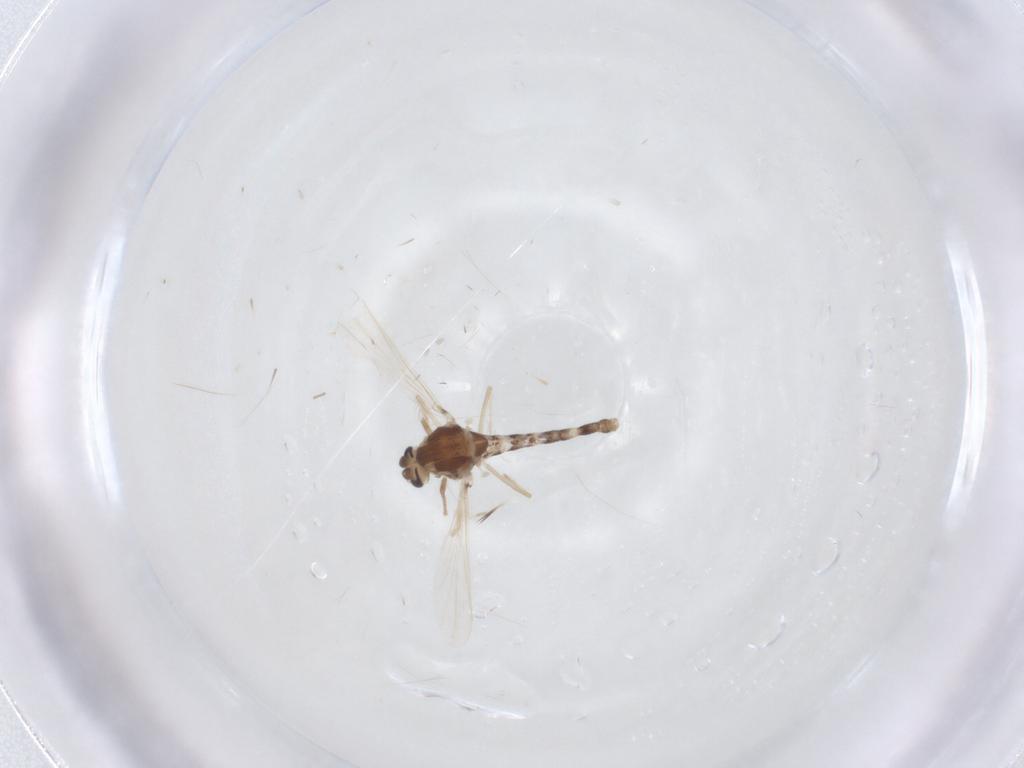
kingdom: Animalia
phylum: Arthropoda
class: Insecta
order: Diptera
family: Chironomidae
